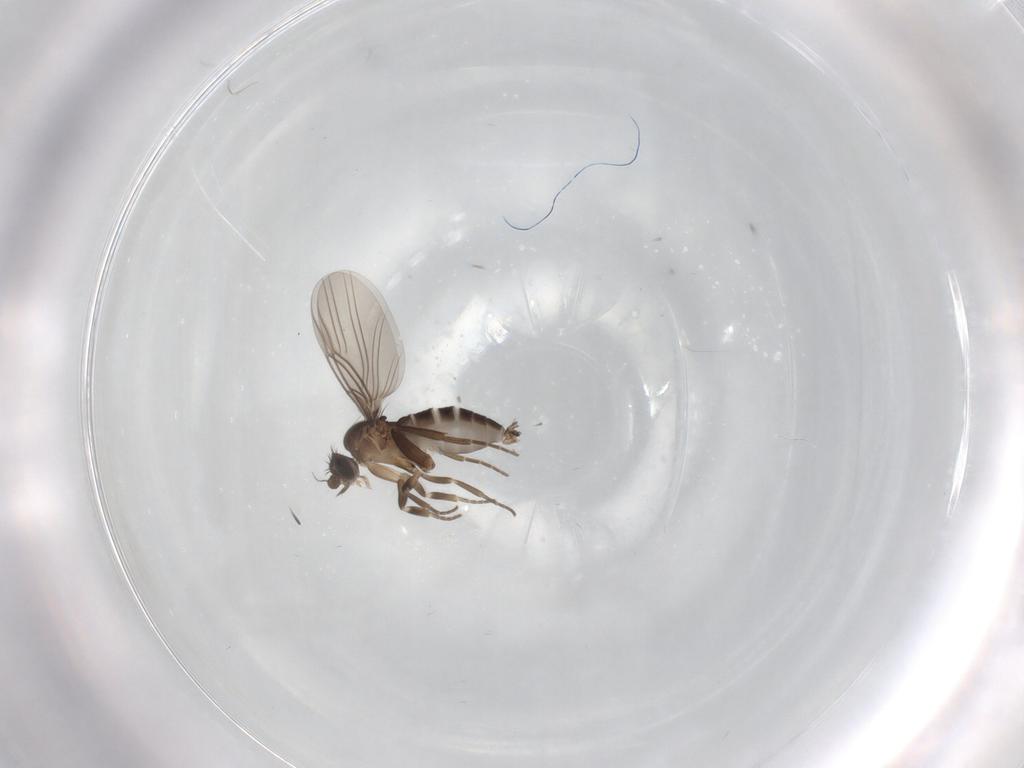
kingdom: Animalia
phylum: Arthropoda
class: Insecta
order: Diptera
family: Phoridae
